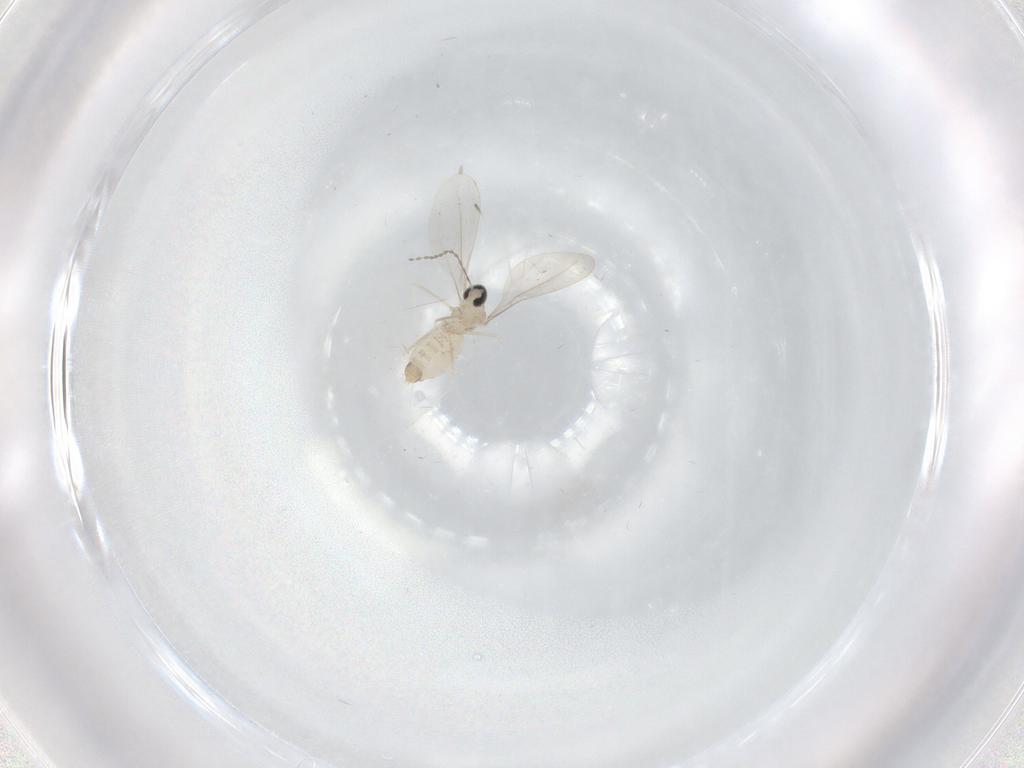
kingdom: Animalia
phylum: Arthropoda
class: Insecta
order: Diptera
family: Cecidomyiidae
